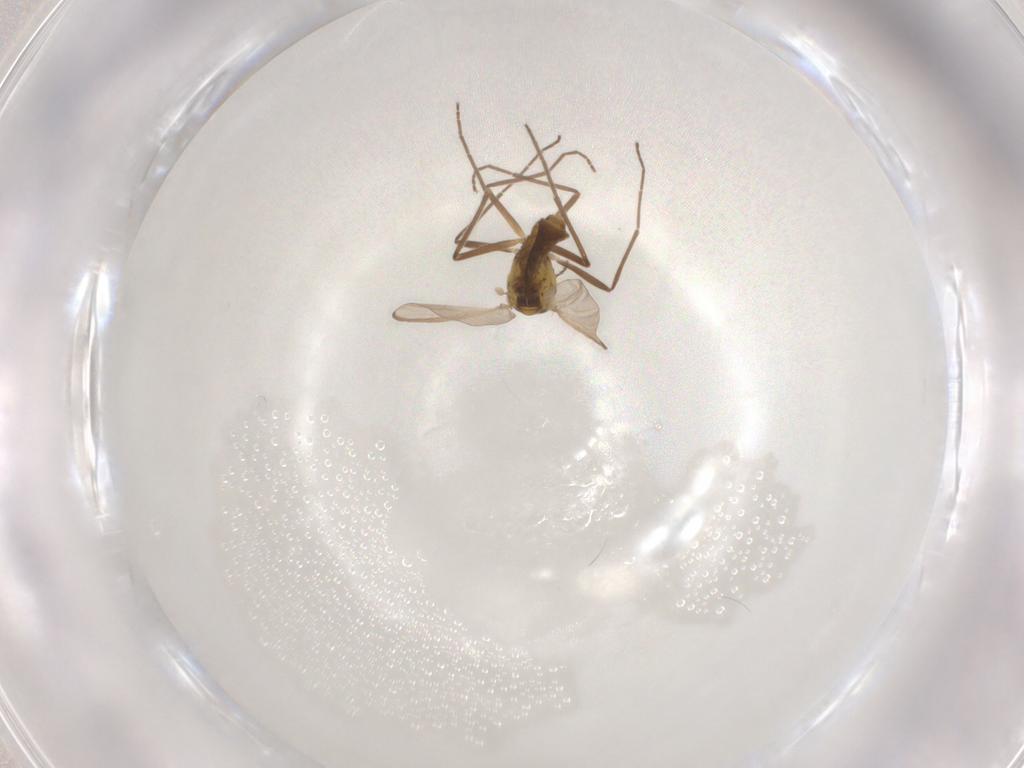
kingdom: Animalia
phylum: Arthropoda
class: Insecta
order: Diptera
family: Chironomidae
